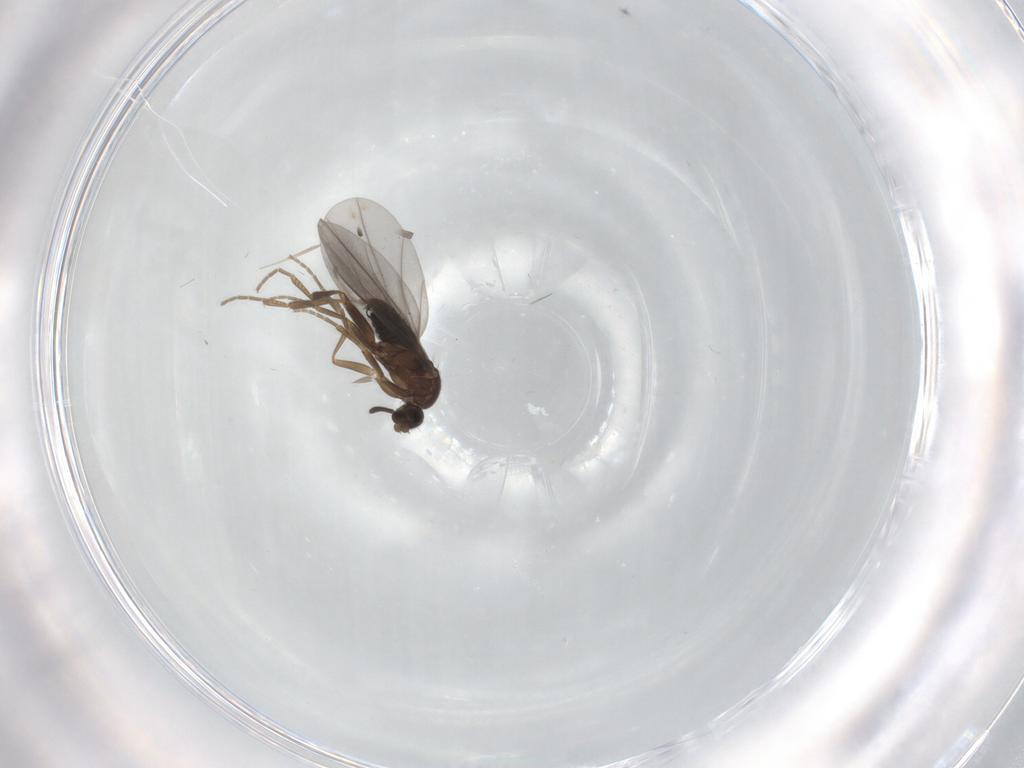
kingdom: Animalia
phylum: Arthropoda
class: Insecta
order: Diptera
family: Phoridae
